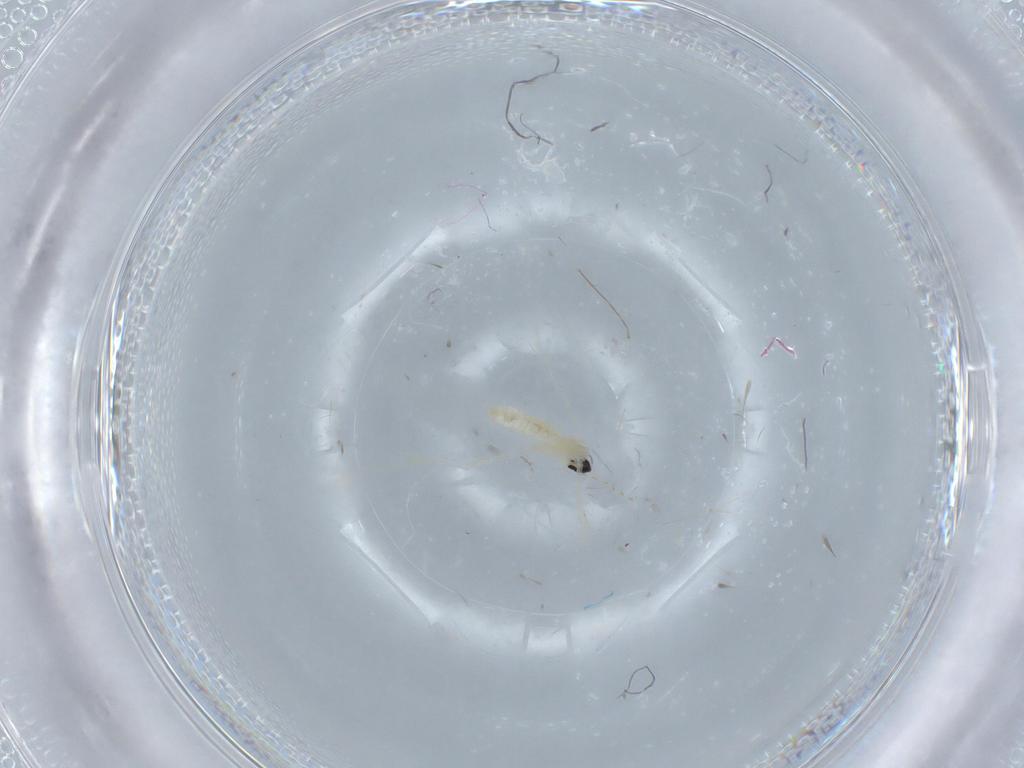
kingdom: Animalia
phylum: Arthropoda
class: Insecta
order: Diptera
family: Cecidomyiidae
